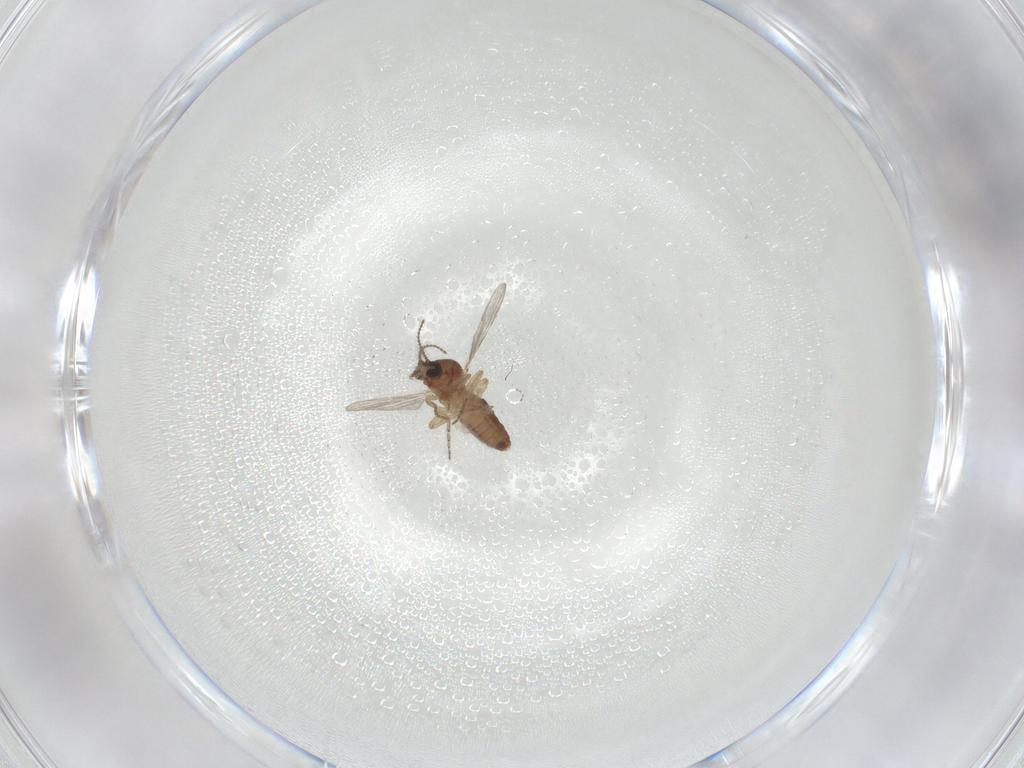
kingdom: Animalia
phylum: Arthropoda
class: Insecta
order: Diptera
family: Ceratopogonidae
